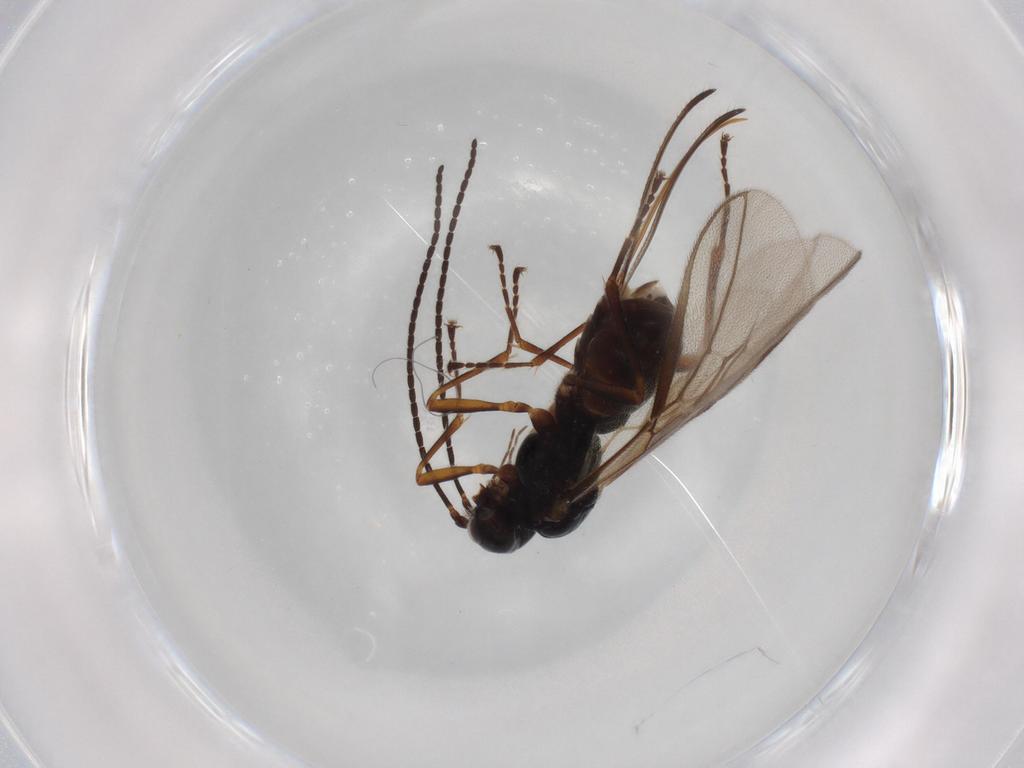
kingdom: Animalia
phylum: Arthropoda
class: Insecta
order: Hymenoptera
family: Braconidae
